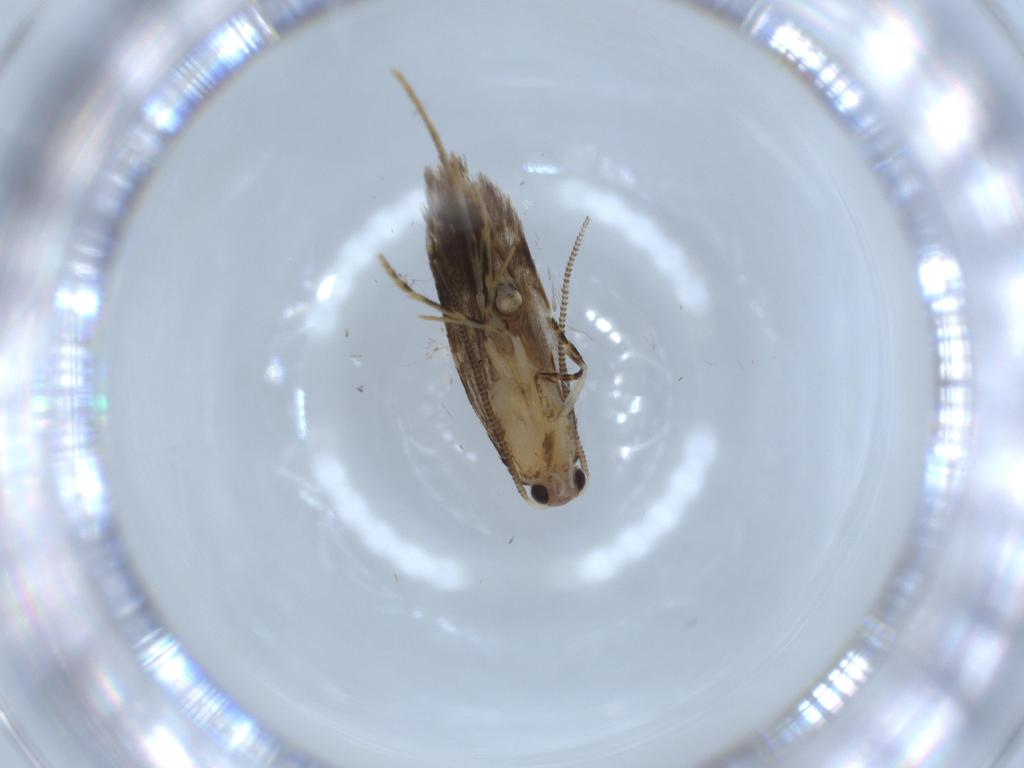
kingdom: Animalia
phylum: Arthropoda
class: Insecta
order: Lepidoptera
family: Tineidae
